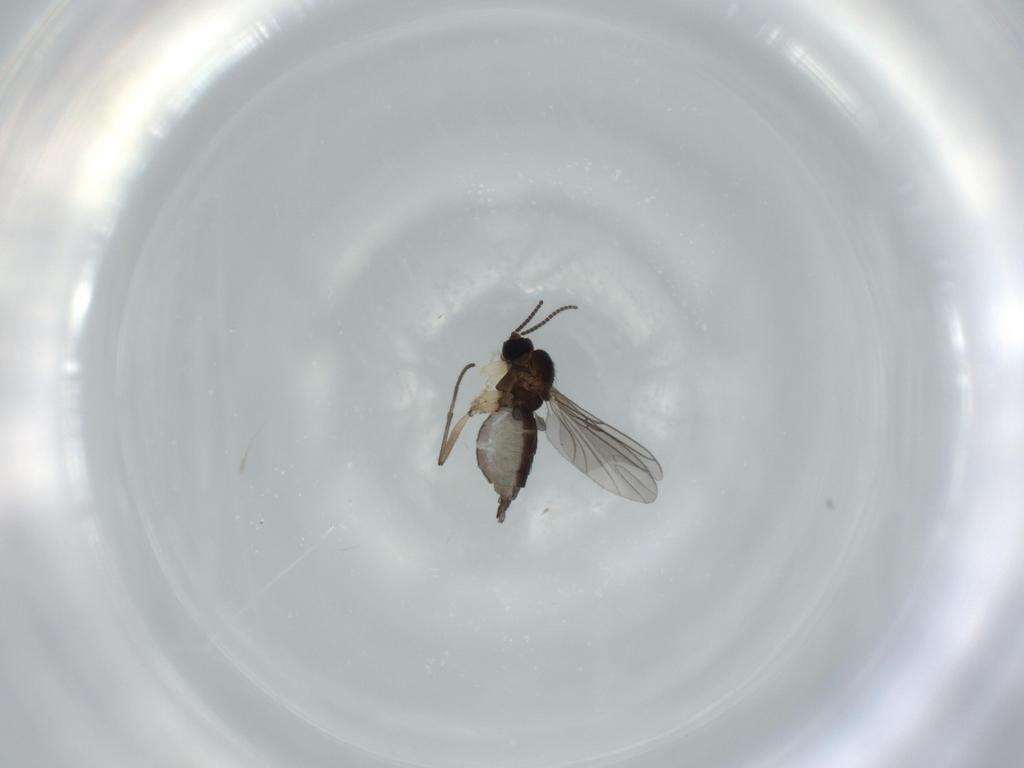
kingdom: Animalia
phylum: Arthropoda
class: Insecta
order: Diptera
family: Sciaridae
